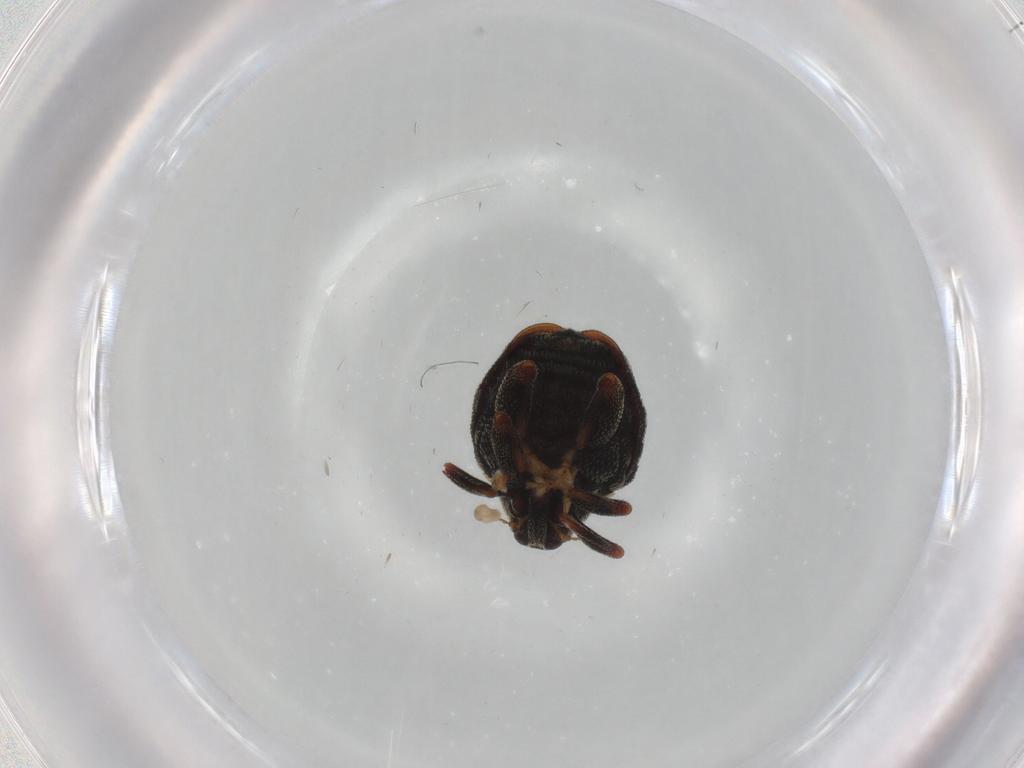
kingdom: Animalia
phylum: Arthropoda
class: Insecta
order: Coleoptera
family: Curculionidae
